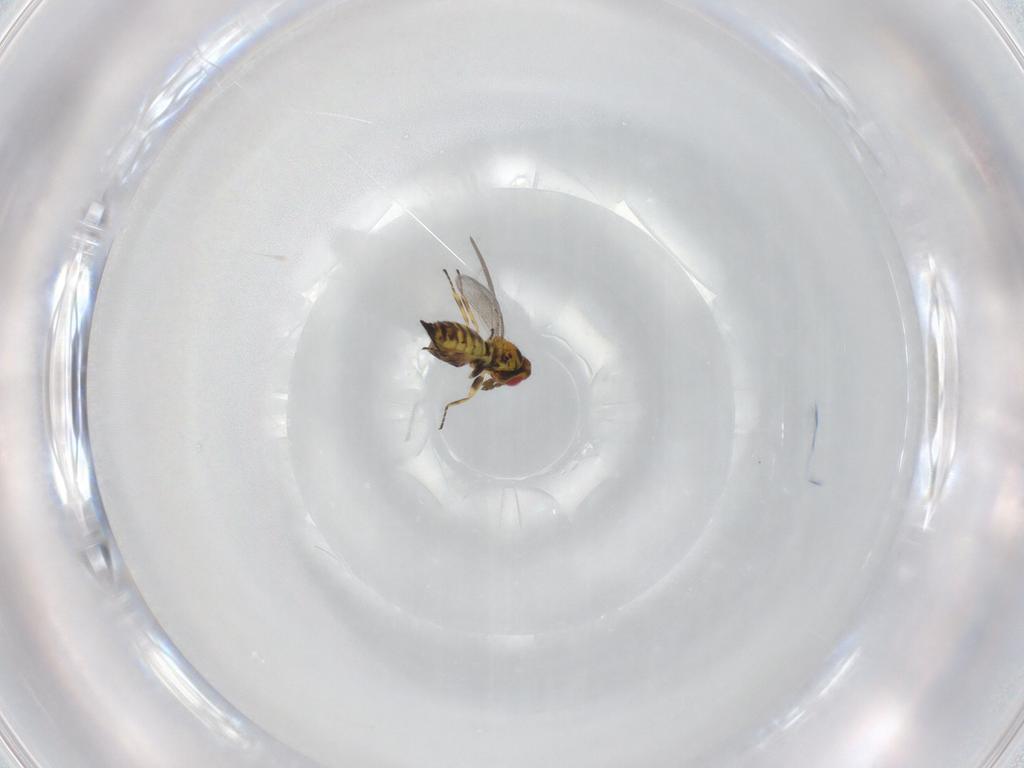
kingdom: Animalia
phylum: Arthropoda
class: Insecta
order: Hymenoptera
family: Eulophidae
